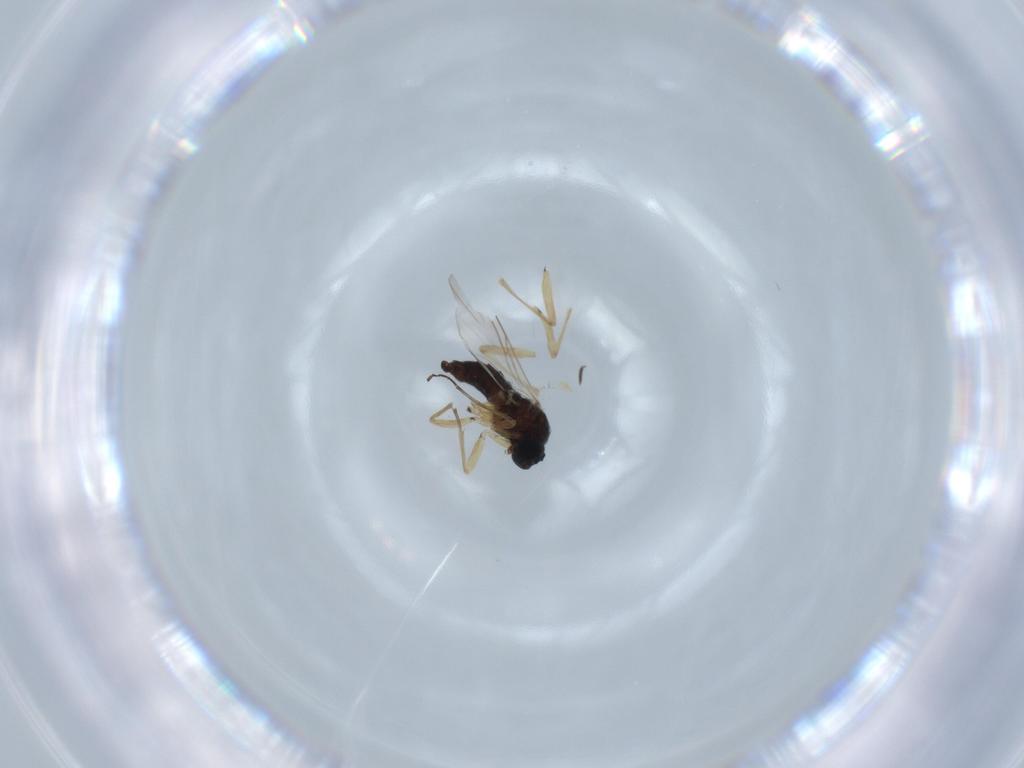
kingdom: Animalia
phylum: Arthropoda
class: Insecta
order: Diptera
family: Sciaridae
